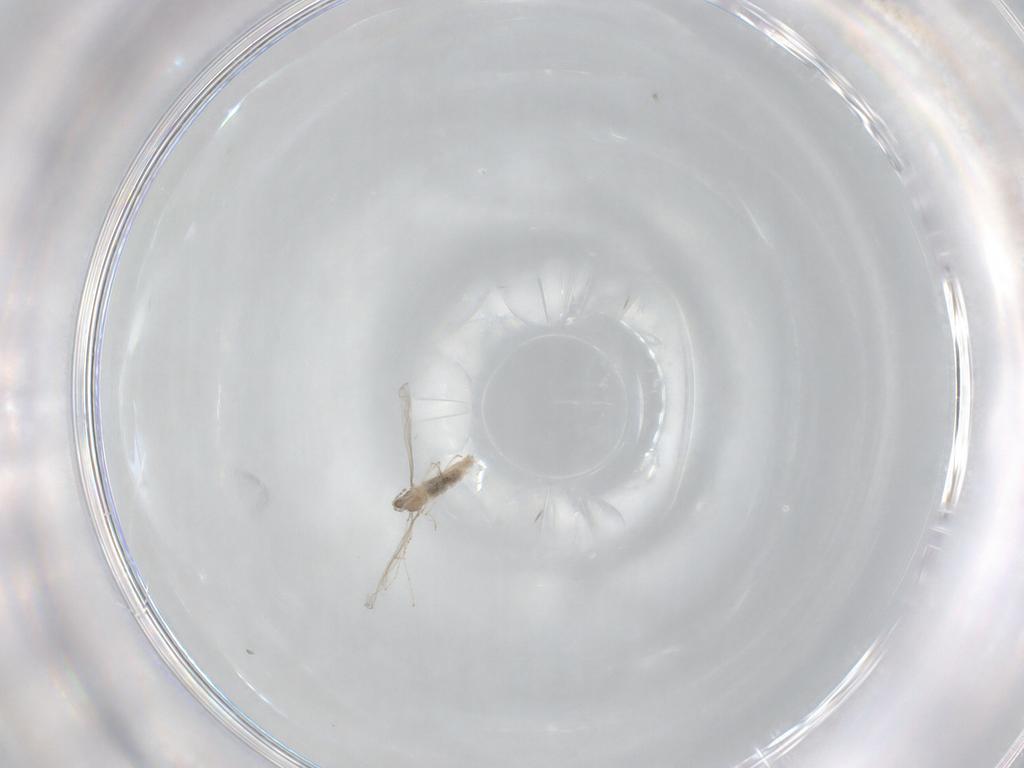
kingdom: Animalia
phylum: Arthropoda
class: Insecta
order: Diptera
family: Cecidomyiidae
